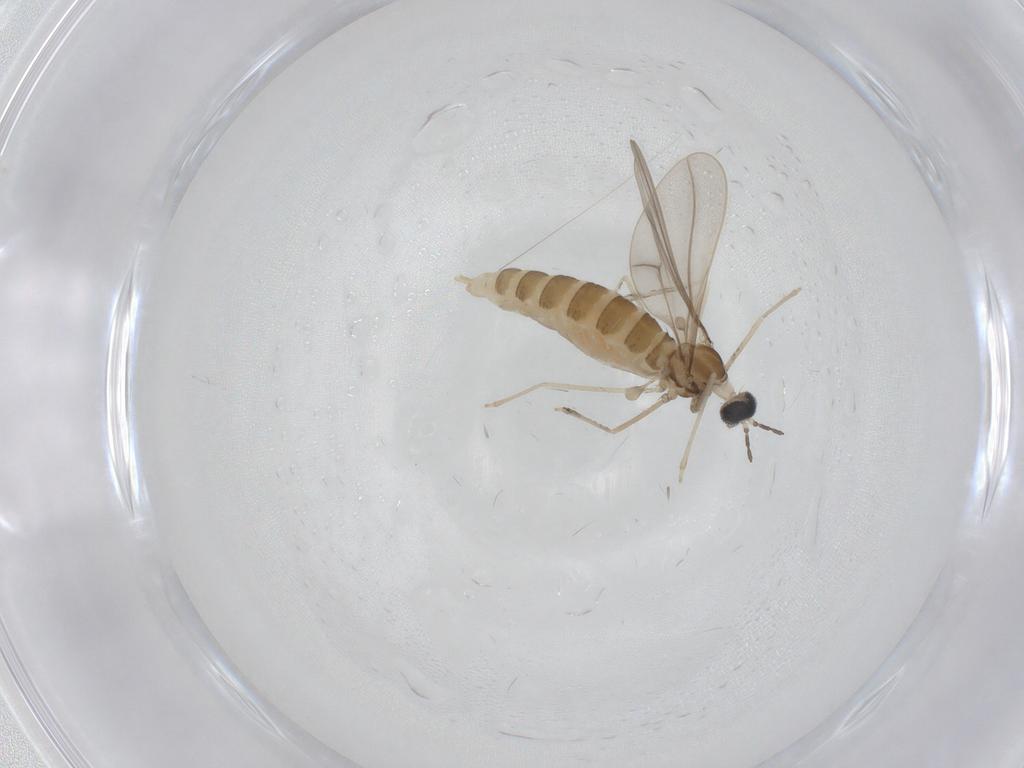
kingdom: Animalia
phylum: Arthropoda
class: Insecta
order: Diptera
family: Cecidomyiidae
